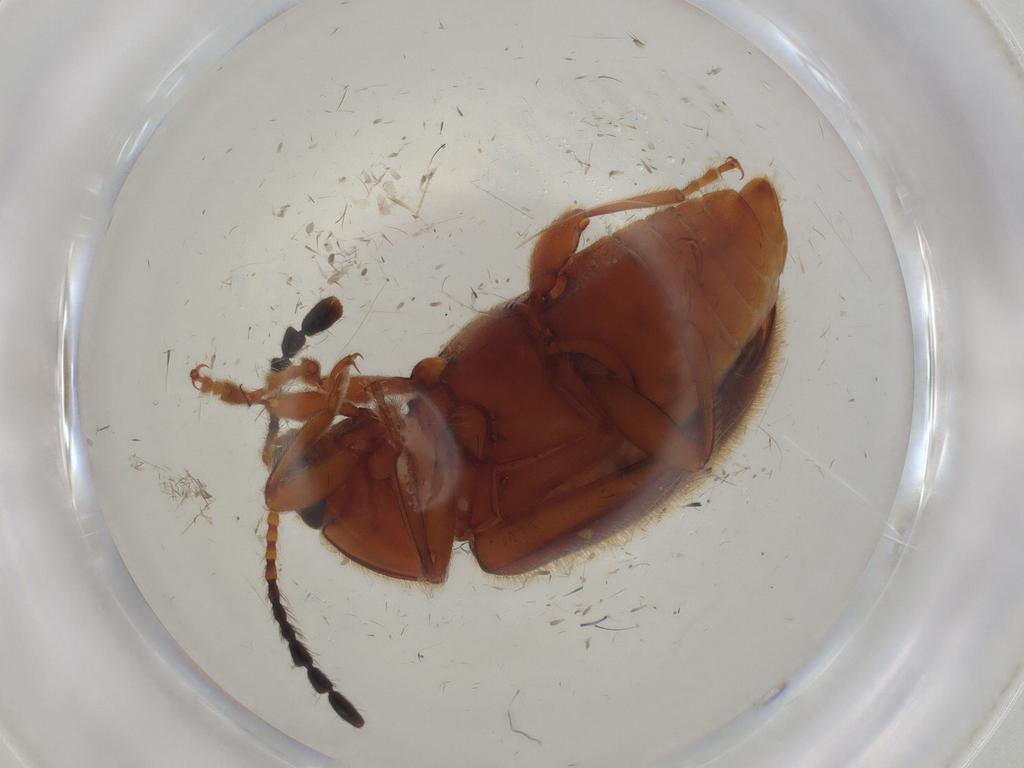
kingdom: Animalia
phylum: Arthropoda
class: Insecta
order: Coleoptera
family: Endomychidae
